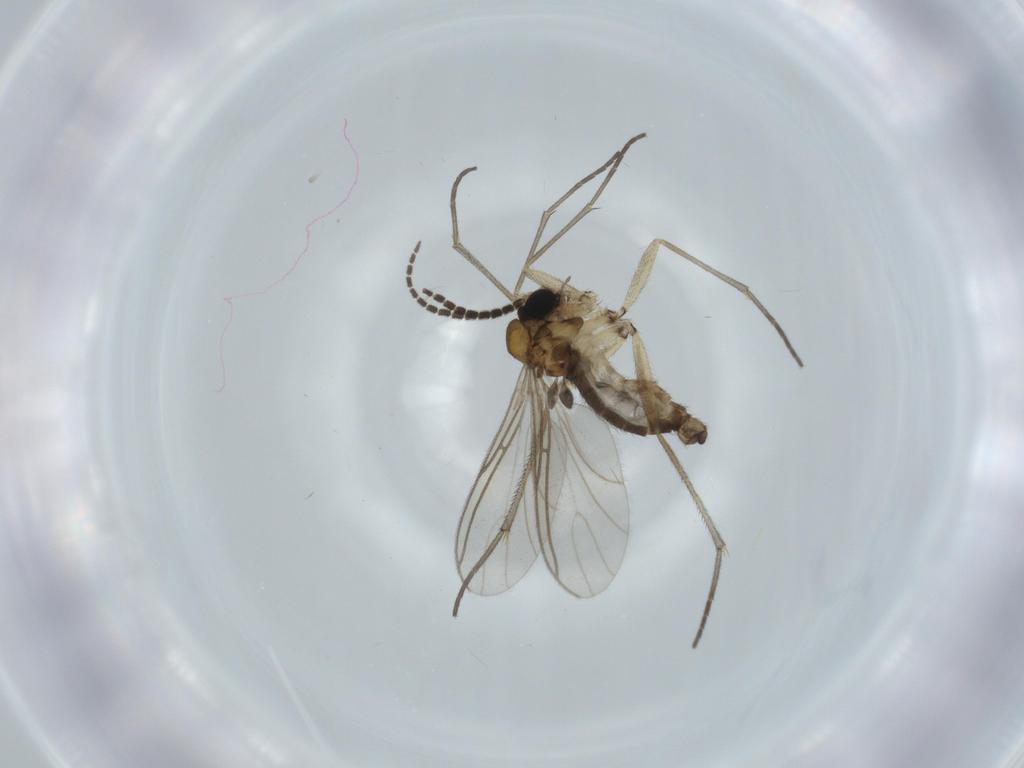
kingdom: Animalia
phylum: Arthropoda
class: Insecta
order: Diptera
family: Sciaridae
